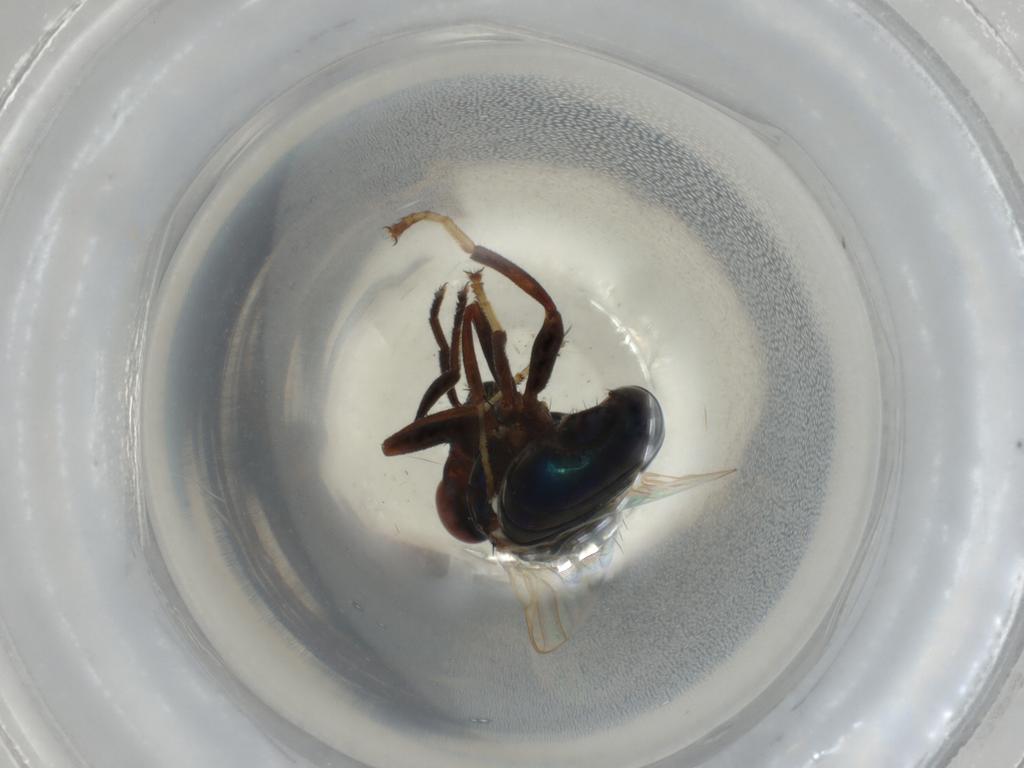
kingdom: Animalia
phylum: Arthropoda
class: Insecta
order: Diptera
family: Ulidiidae
